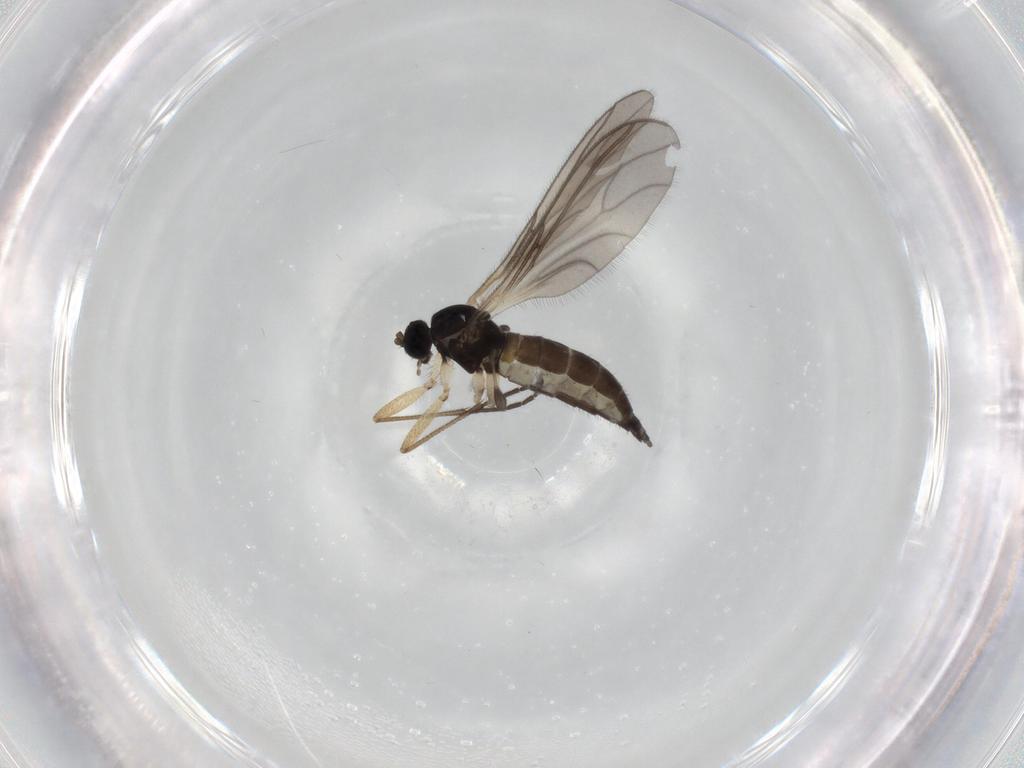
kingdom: Animalia
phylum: Arthropoda
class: Insecta
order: Diptera
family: Sciaridae
